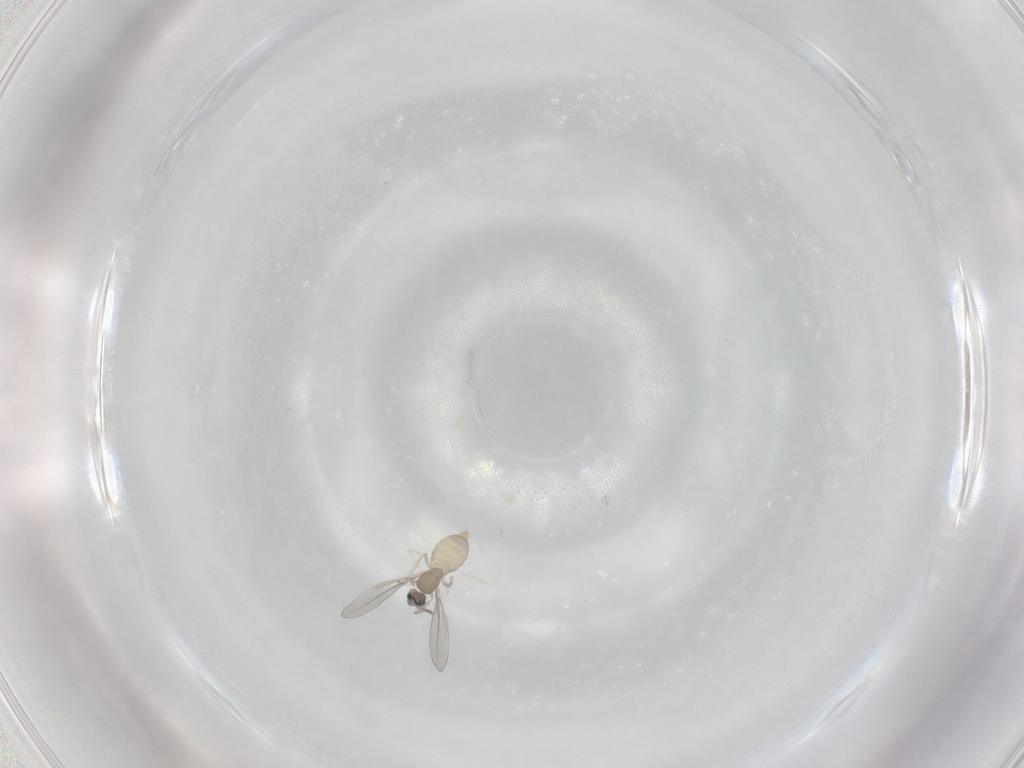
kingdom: Animalia
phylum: Arthropoda
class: Insecta
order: Diptera
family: Cecidomyiidae
